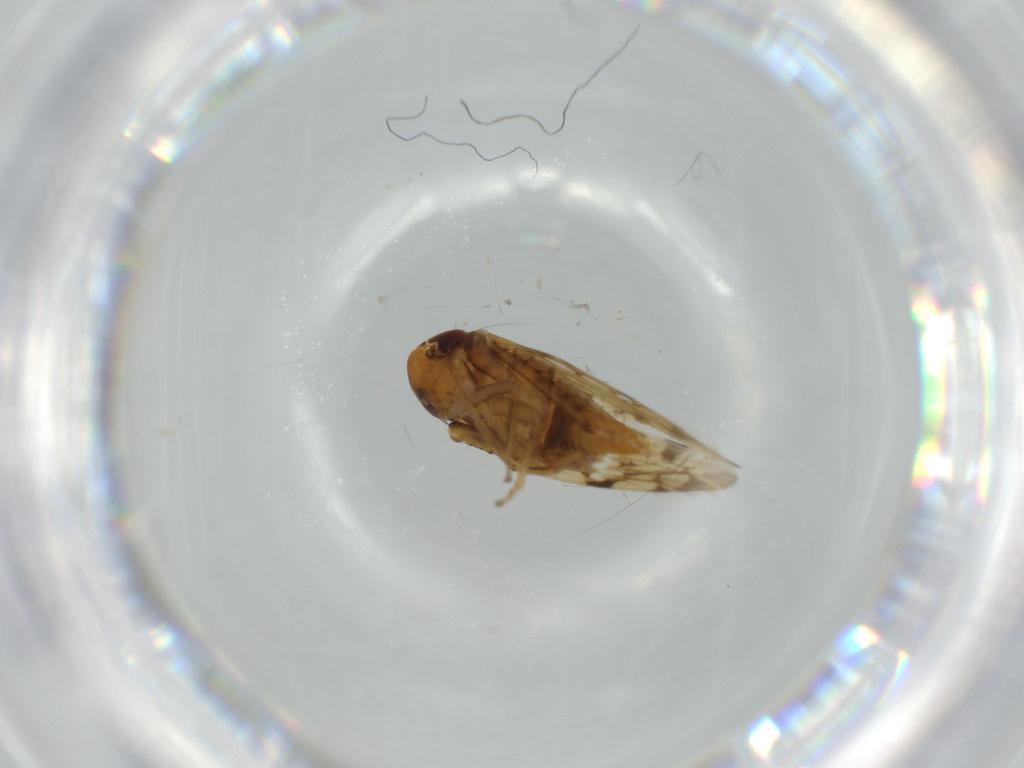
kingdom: Animalia
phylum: Arthropoda
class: Insecta
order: Hemiptera
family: Cicadellidae
